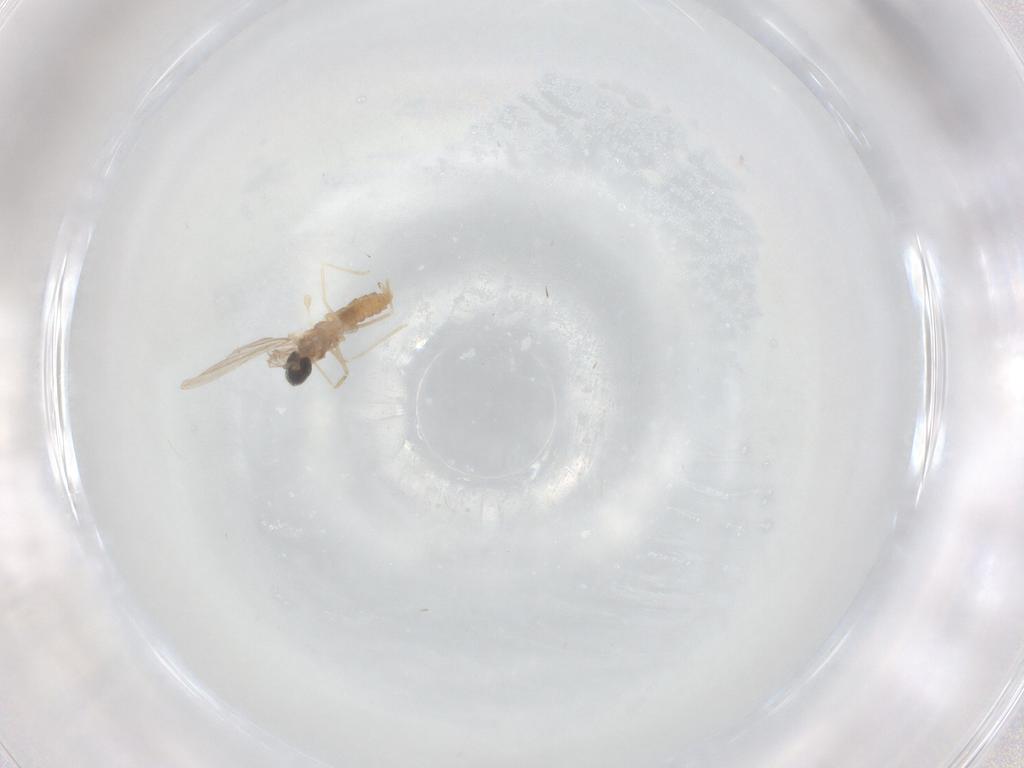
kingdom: Animalia
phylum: Arthropoda
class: Insecta
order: Diptera
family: Cecidomyiidae
